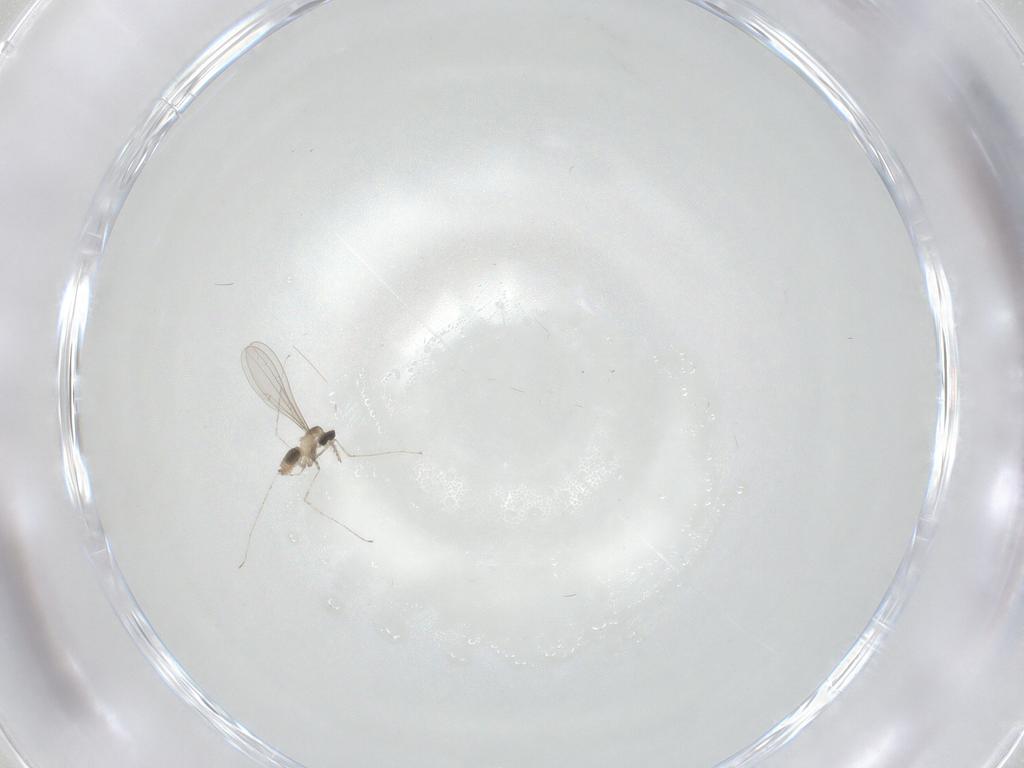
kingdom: Animalia
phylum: Arthropoda
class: Insecta
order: Diptera
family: Cecidomyiidae
